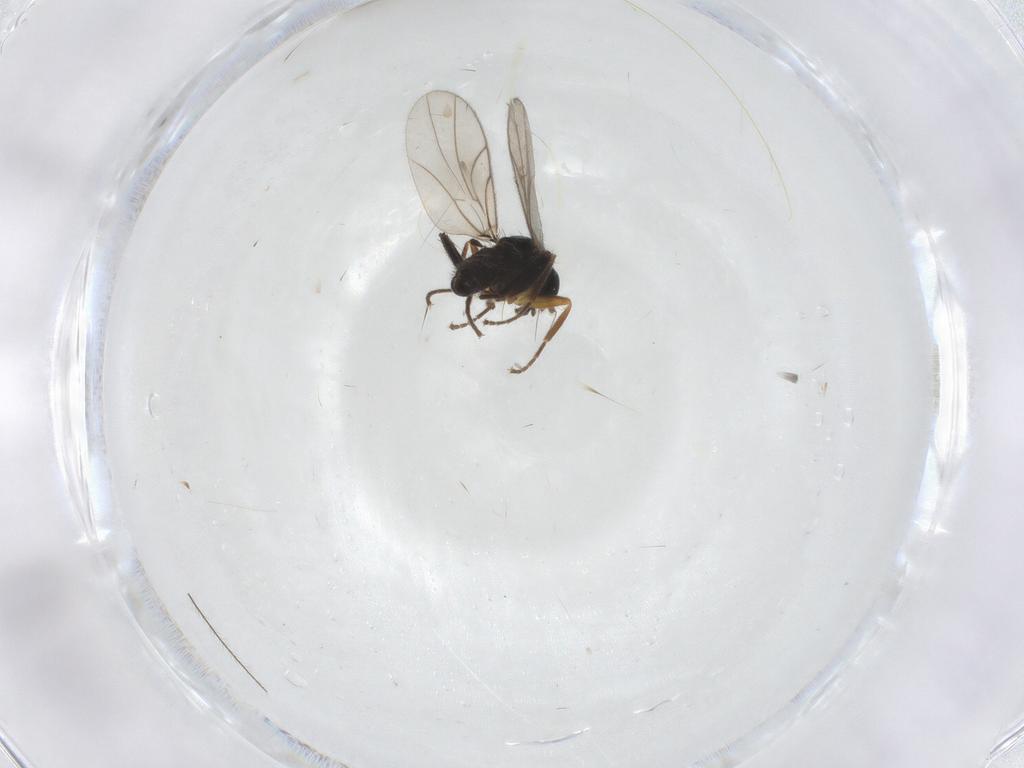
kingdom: Animalia
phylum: Arthropoda
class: Insecta
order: Diptera
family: Hybotidae
